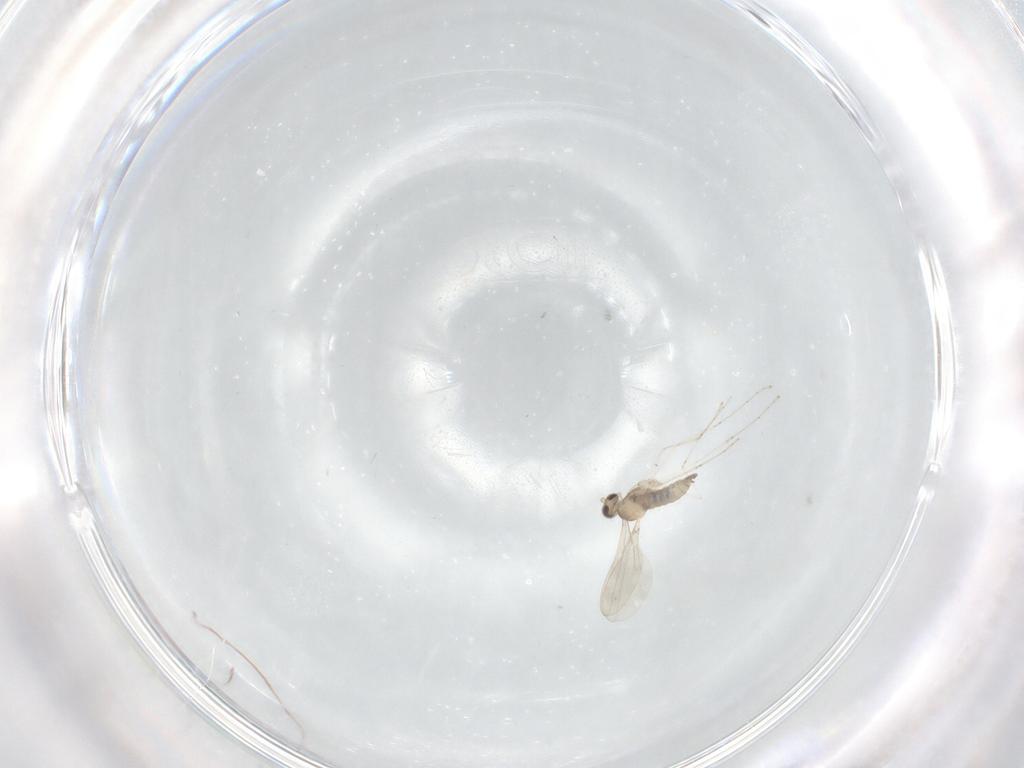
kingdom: Animalia
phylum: Arthropoda
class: Insecta
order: Diptera
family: Chironomidae
